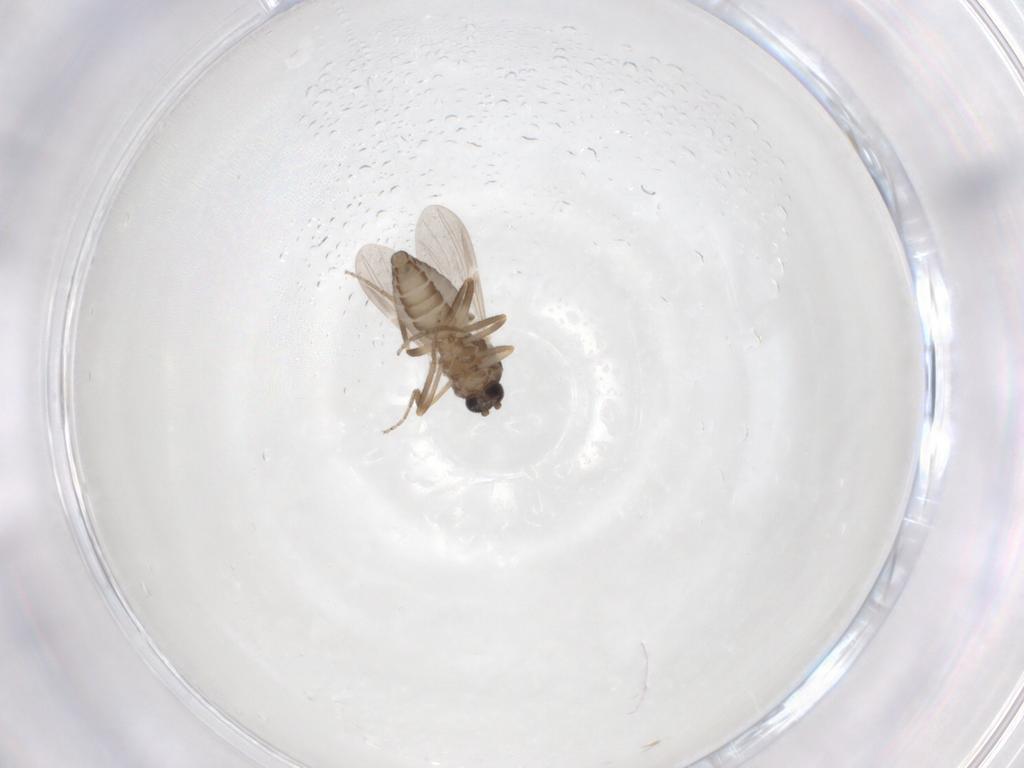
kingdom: Animalia
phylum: Arthropoda
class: Insecta
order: Diptera
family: Ceratopogonidae
